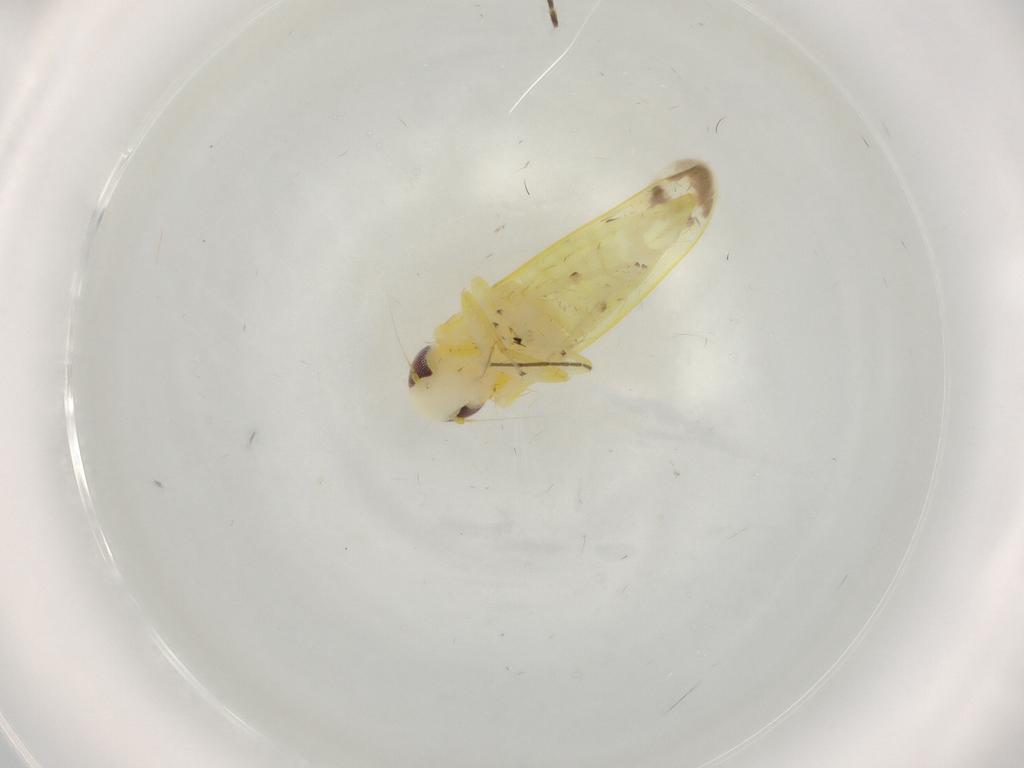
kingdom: Animalia
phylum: Arthropoda
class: Insecta
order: Hemiptera
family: Cicadellidae
